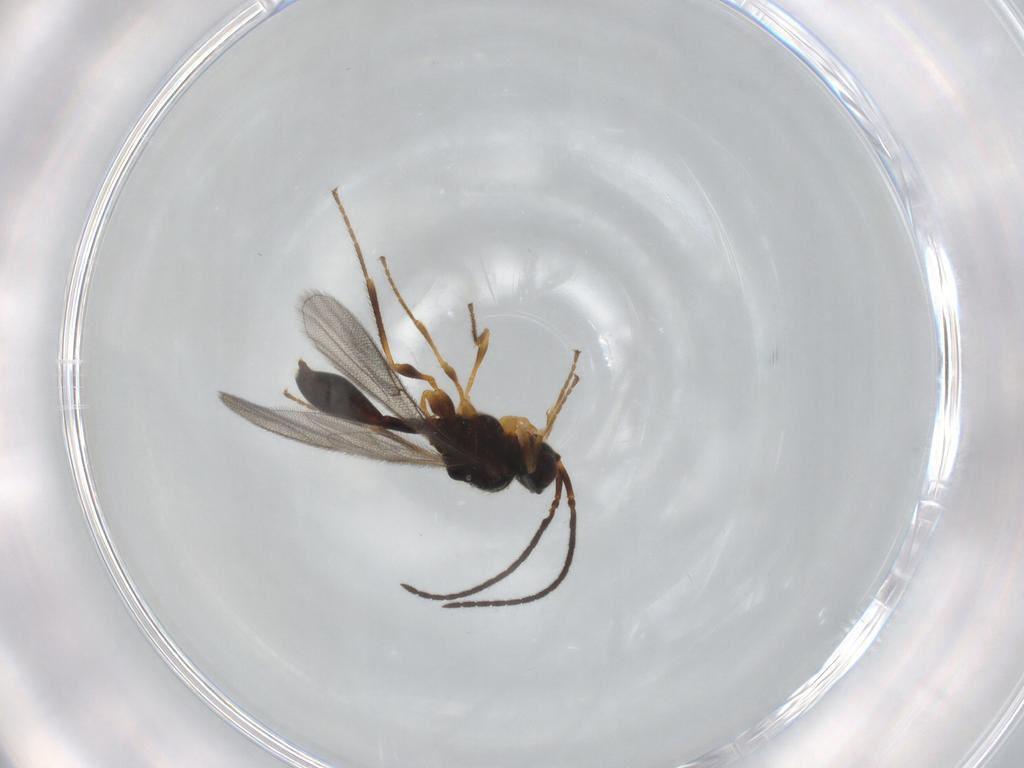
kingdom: Animalia
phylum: Arthropoda
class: Insecta
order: Hymenoptera
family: Diapriidae
